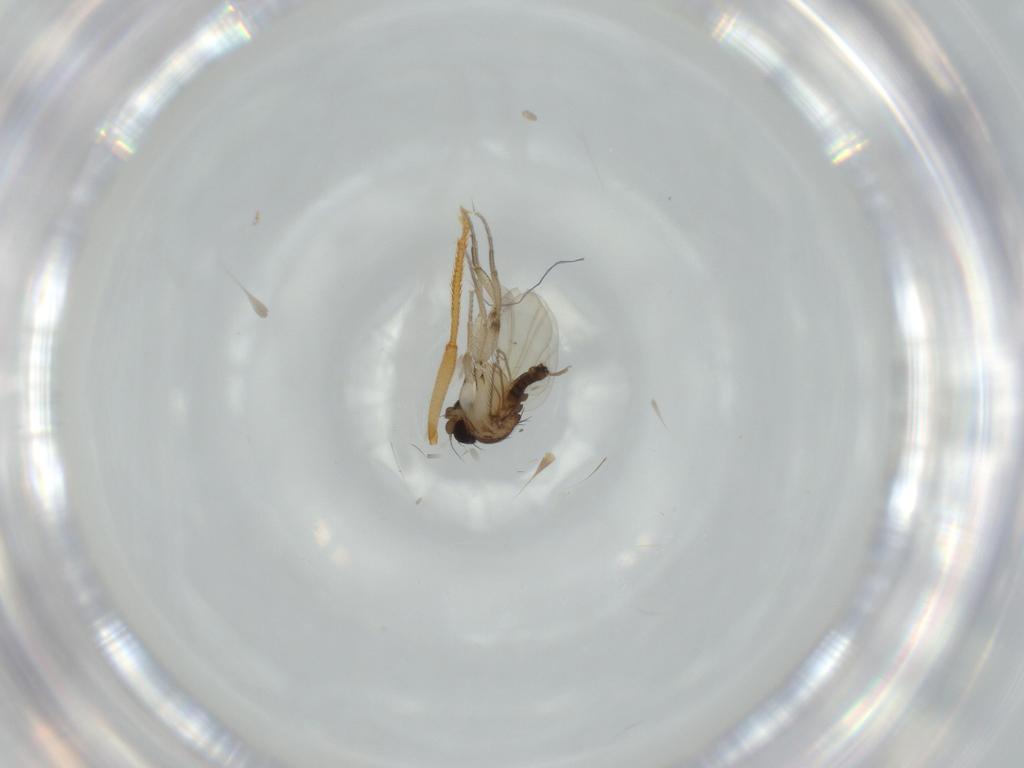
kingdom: Animalia
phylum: Arthropoda
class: Insecta
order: Diptera
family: Phoridae
